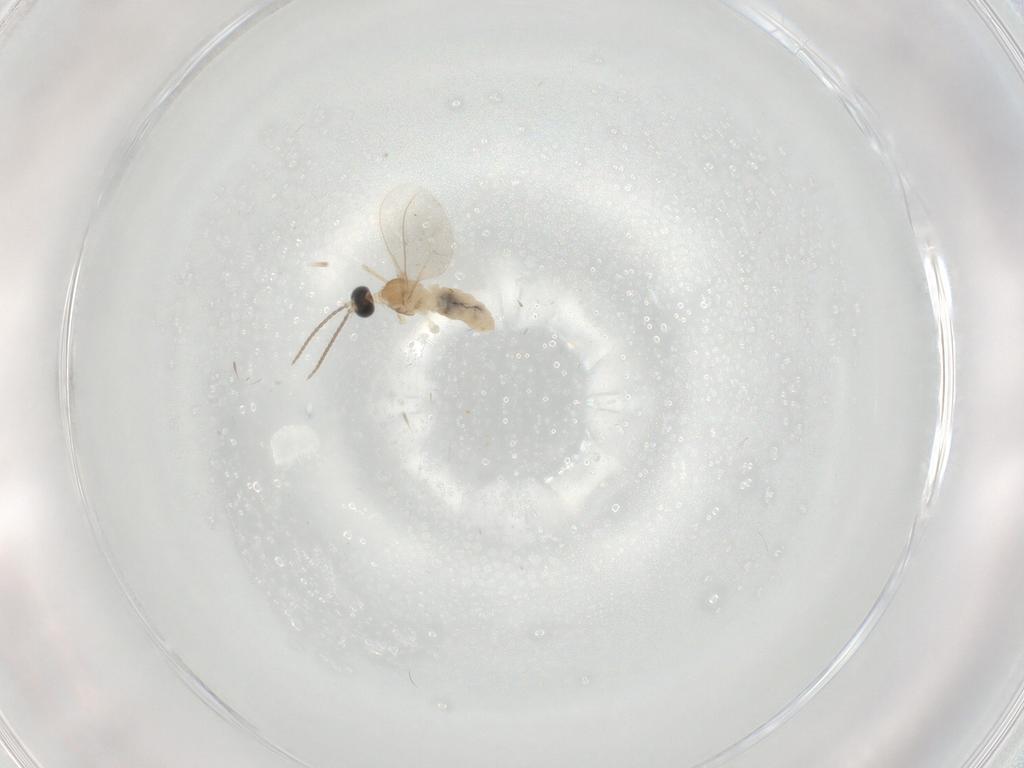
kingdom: Animalia
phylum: Arthropoda
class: Insecta
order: Diptera
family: Cecidomyiidae
